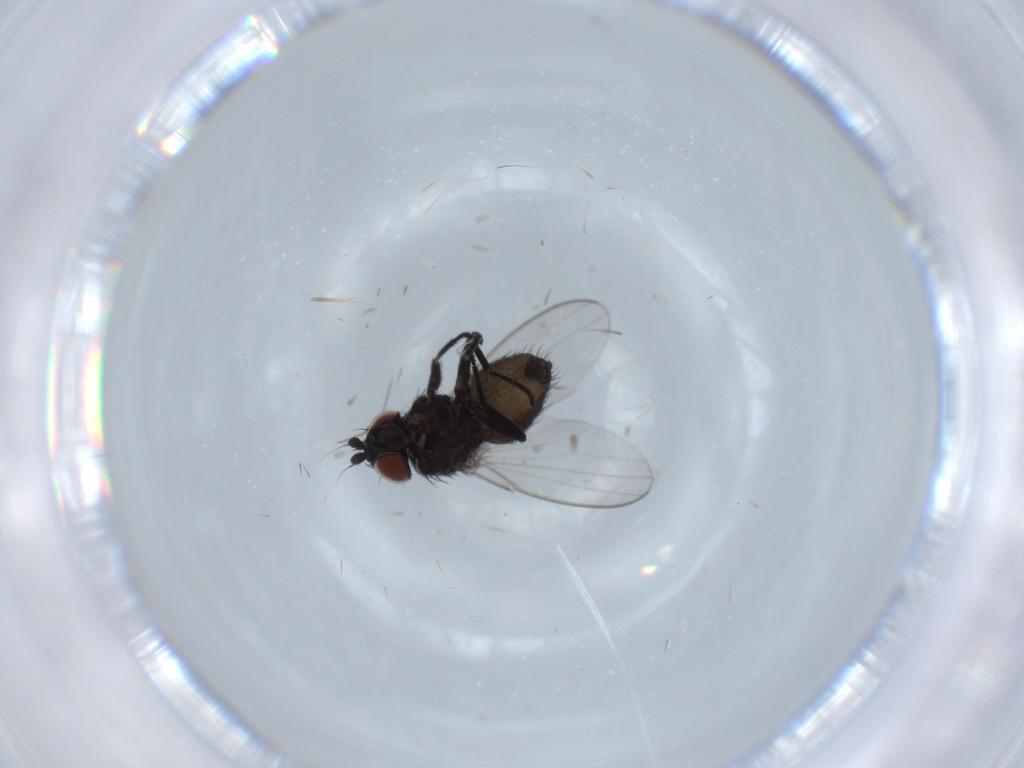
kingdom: Animalia
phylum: Arthropoda
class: Insecta
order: Diptera
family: Milichiidae
